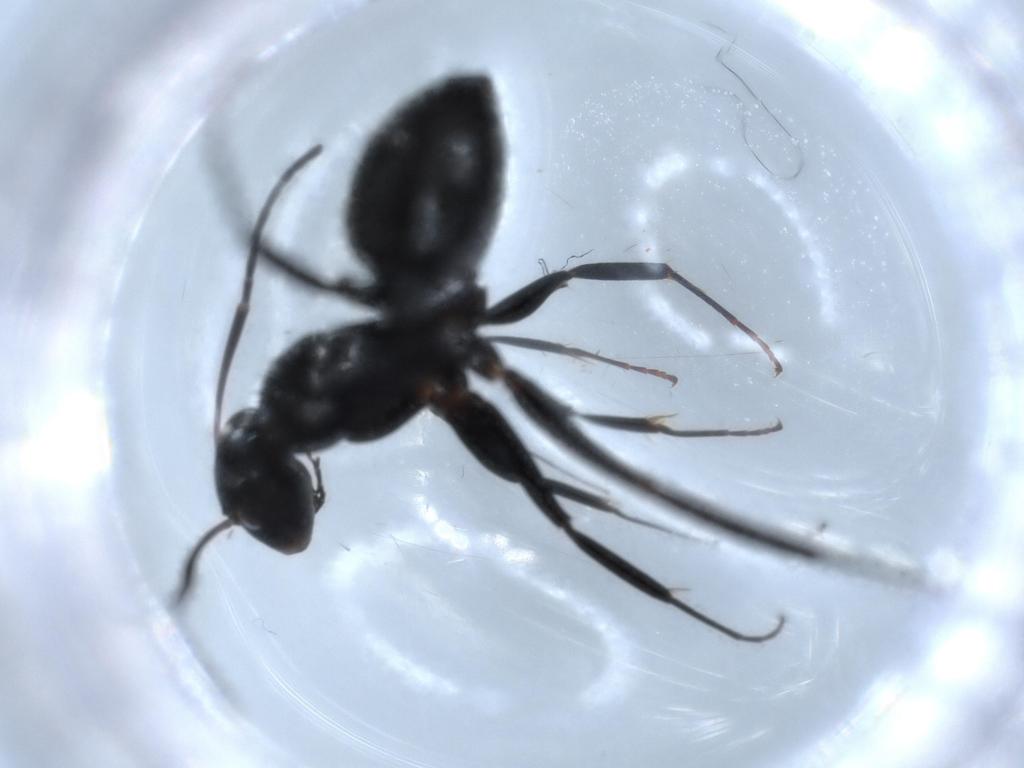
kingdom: Animalia
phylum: Arthropoda
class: Insecta
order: Hymenoptera
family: Formicidae
